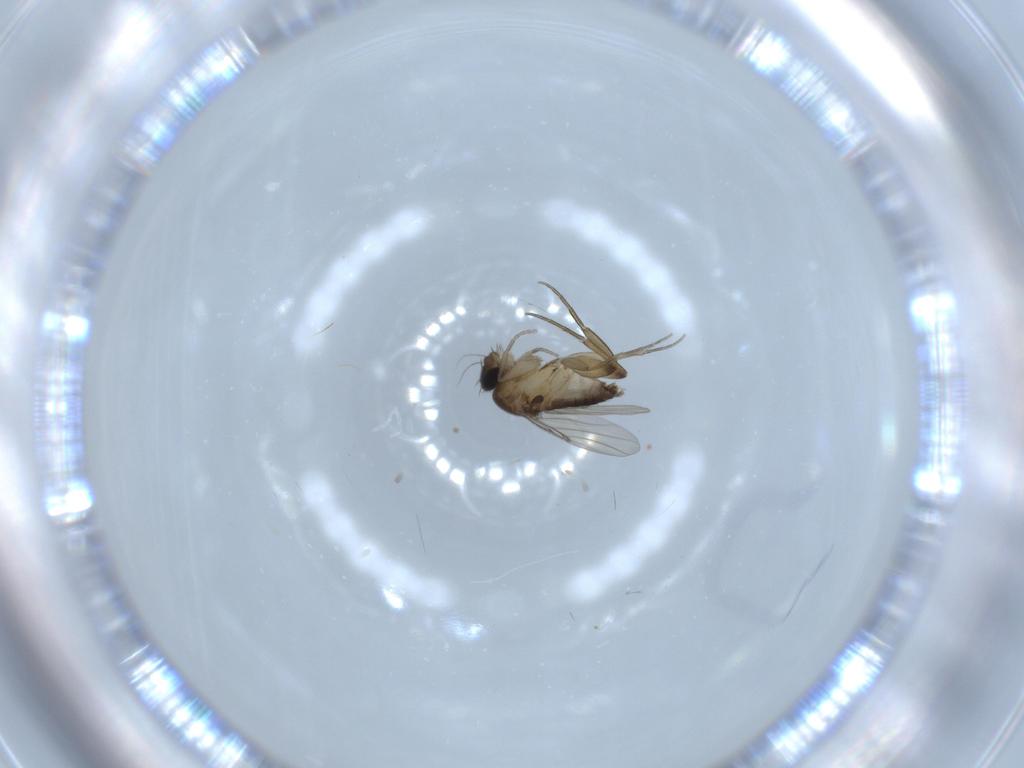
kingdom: Animalia
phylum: Arthropoda
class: Insecta
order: Diptera
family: Phoridae
